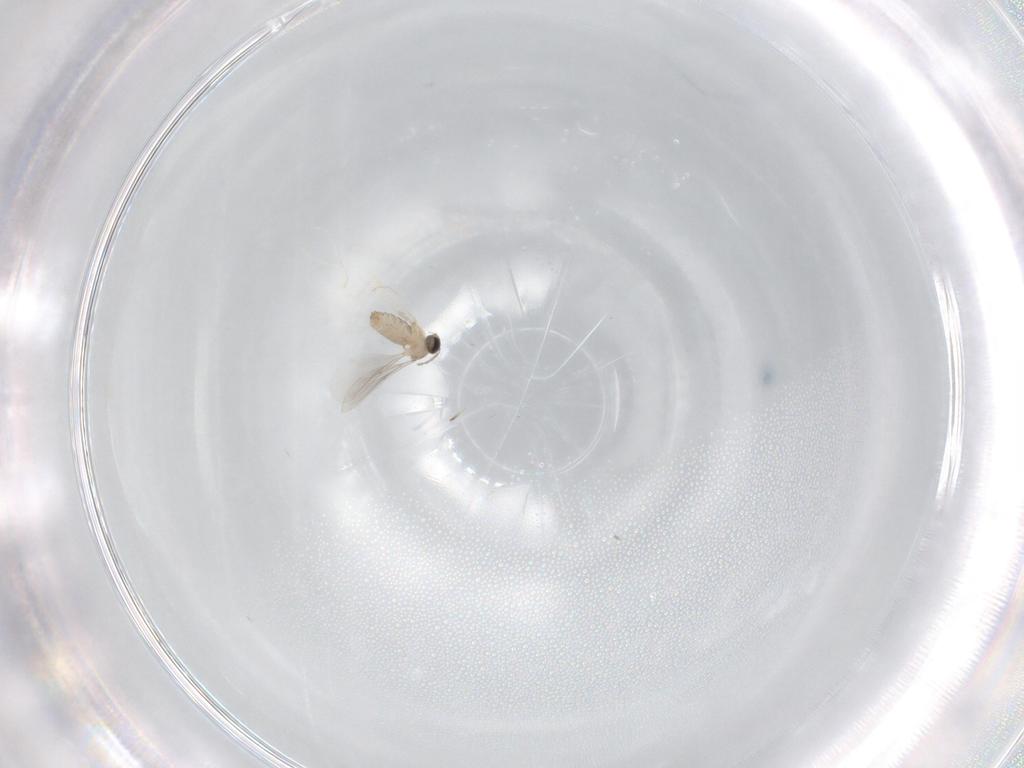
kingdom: Animalia
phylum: Arthropoda
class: Insecta
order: Diptera
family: Cecidomyiidae
